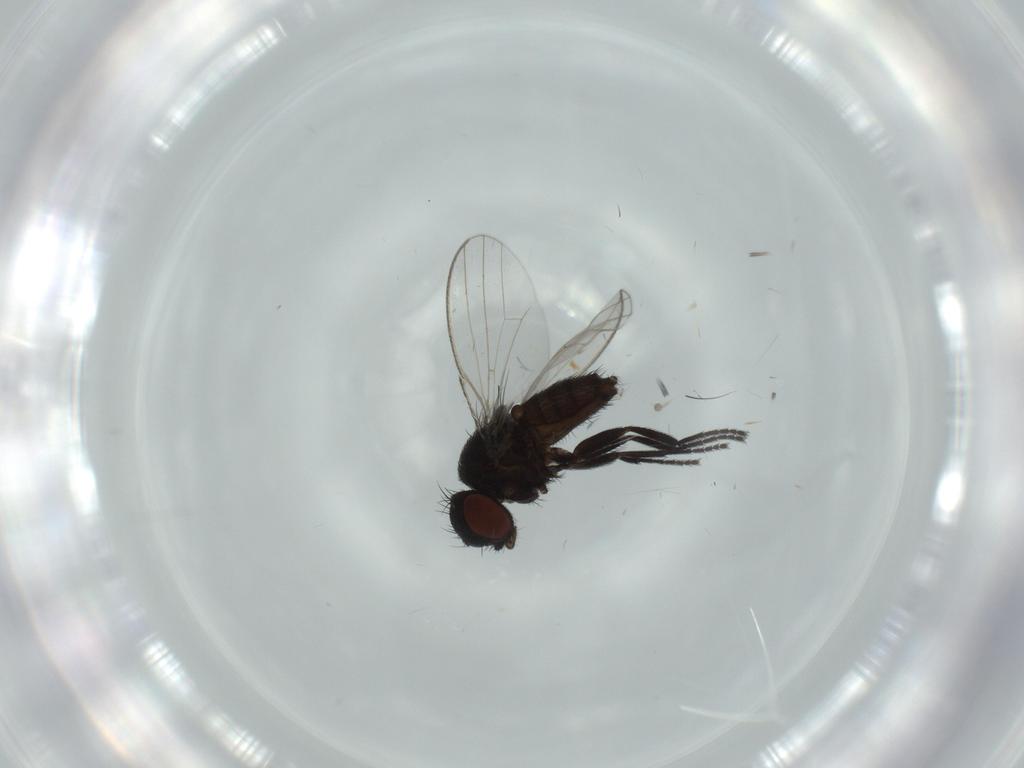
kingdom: Animalia
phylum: Arthropoda
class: Insecta
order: Diptera
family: Milichiidae
